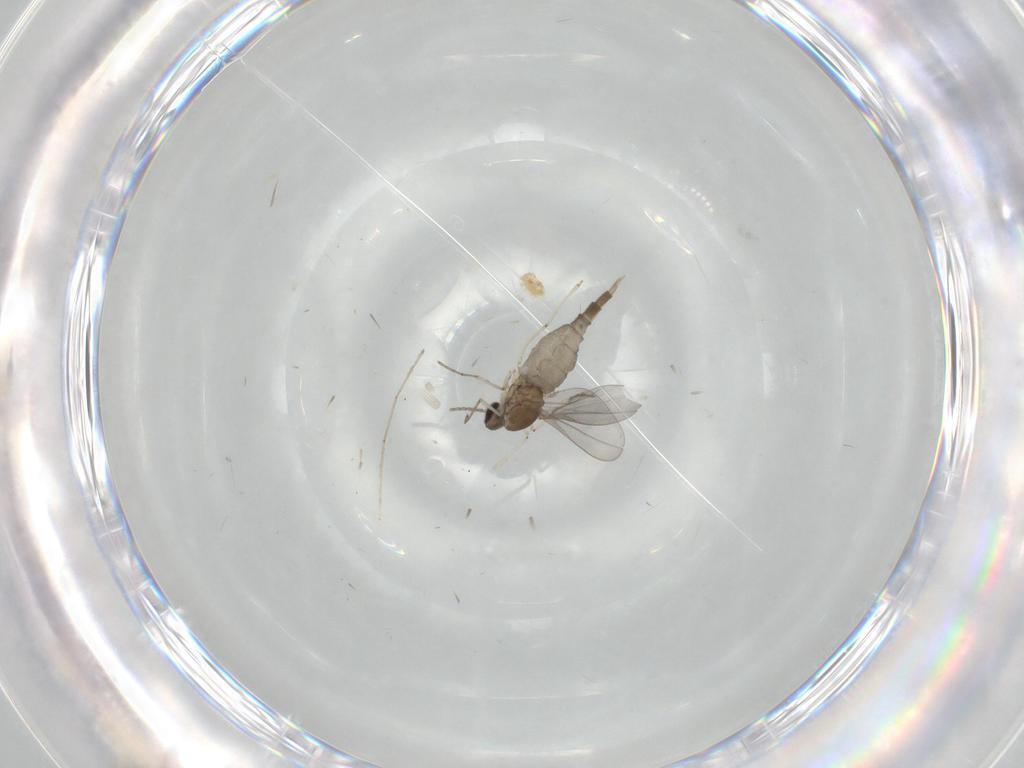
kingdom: Animalia
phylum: Arthropoda
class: Insecta
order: Diptera
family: Cecidomyiidae
